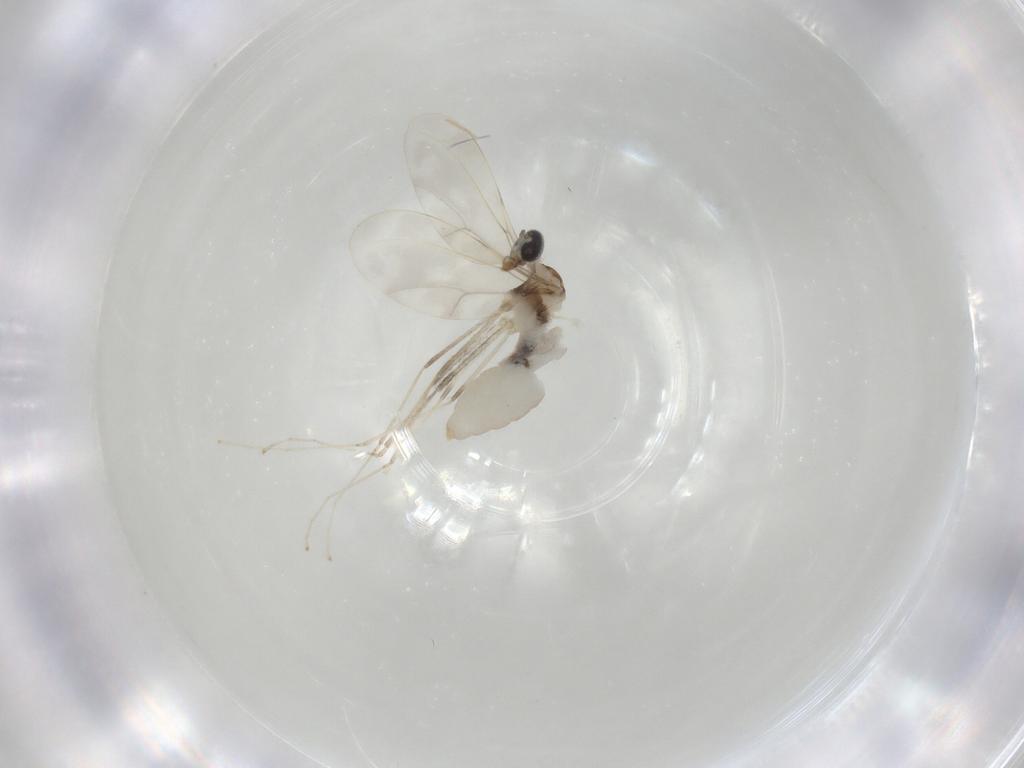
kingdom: Animalia
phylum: Arthropoda
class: Insecta
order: Diptera
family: Cecidomyiidae
